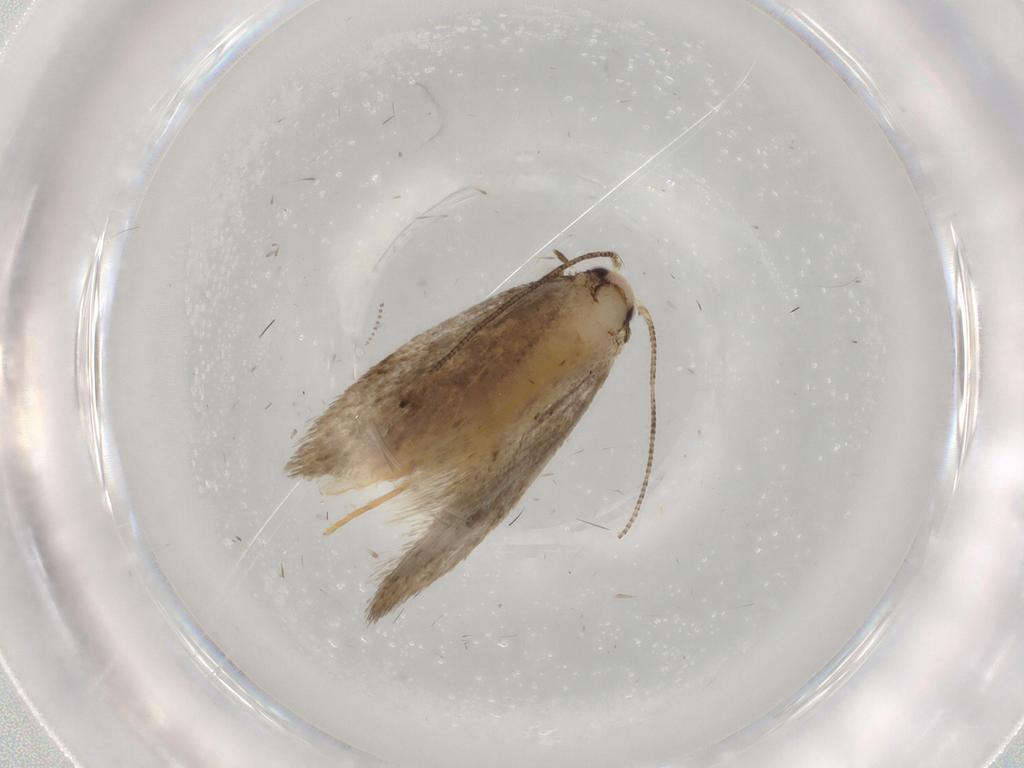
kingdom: Animalia
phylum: Arthropoda
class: Insecta
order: Lepidoptera
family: Tineidae
